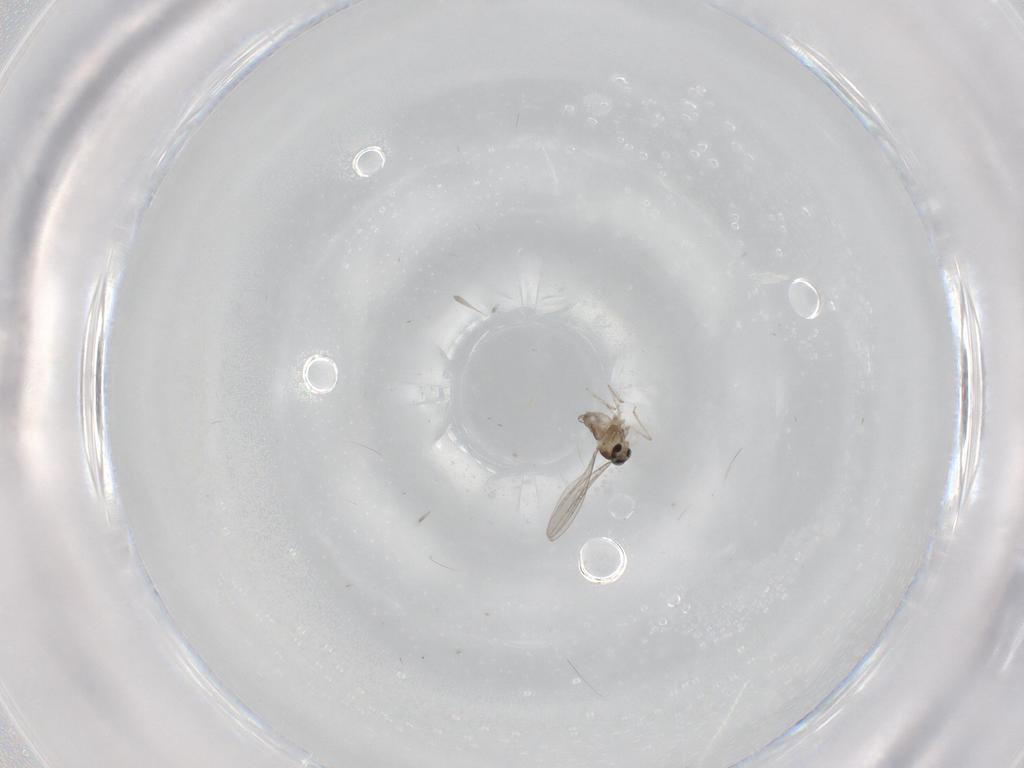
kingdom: Animalia
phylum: Arthropoda
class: Insecta
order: Diptera
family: Cecidomyiidae
